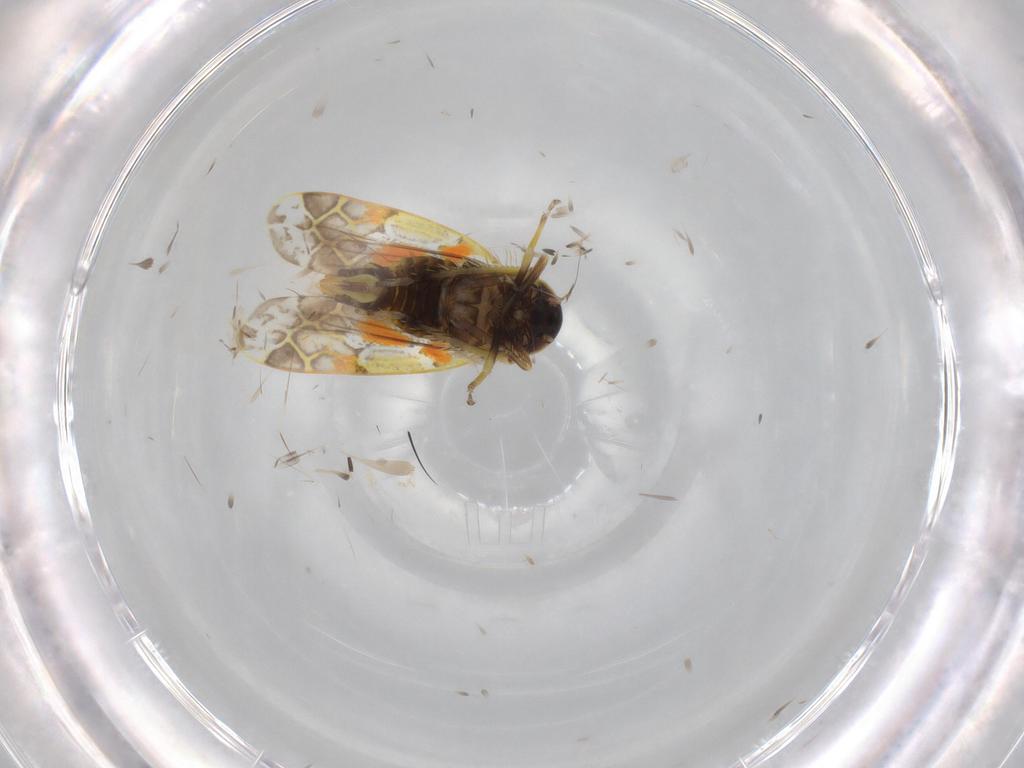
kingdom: Animalia
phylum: Arthropoda
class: Insecta
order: Hemiptera
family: Cicadellidae
